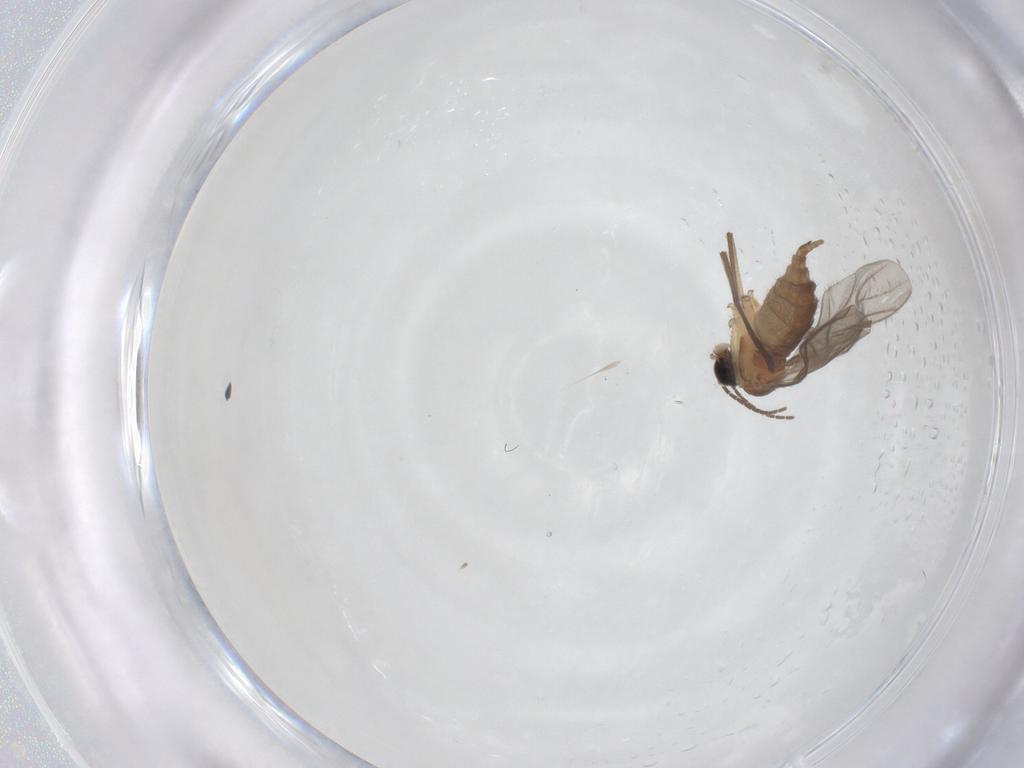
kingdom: Animalia
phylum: Arthropoda
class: Insecta
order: Diptera
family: Sciaridae
